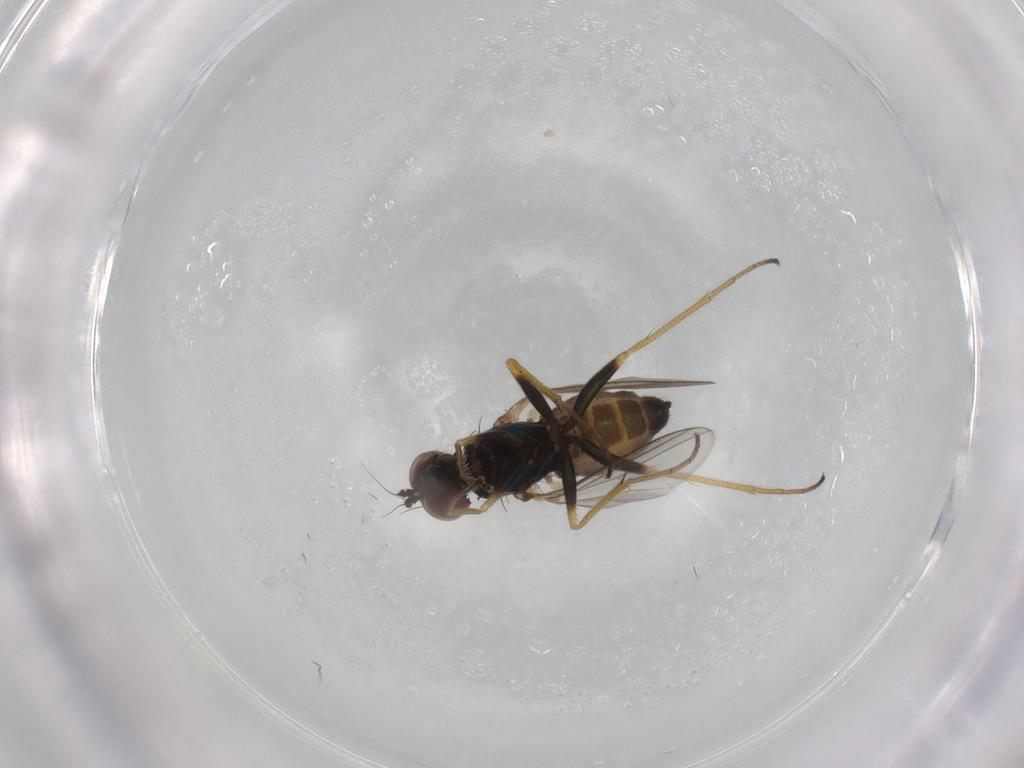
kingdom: Animalia
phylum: Arthropoda
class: Insecta
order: Diptera
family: Dolichopodidae
